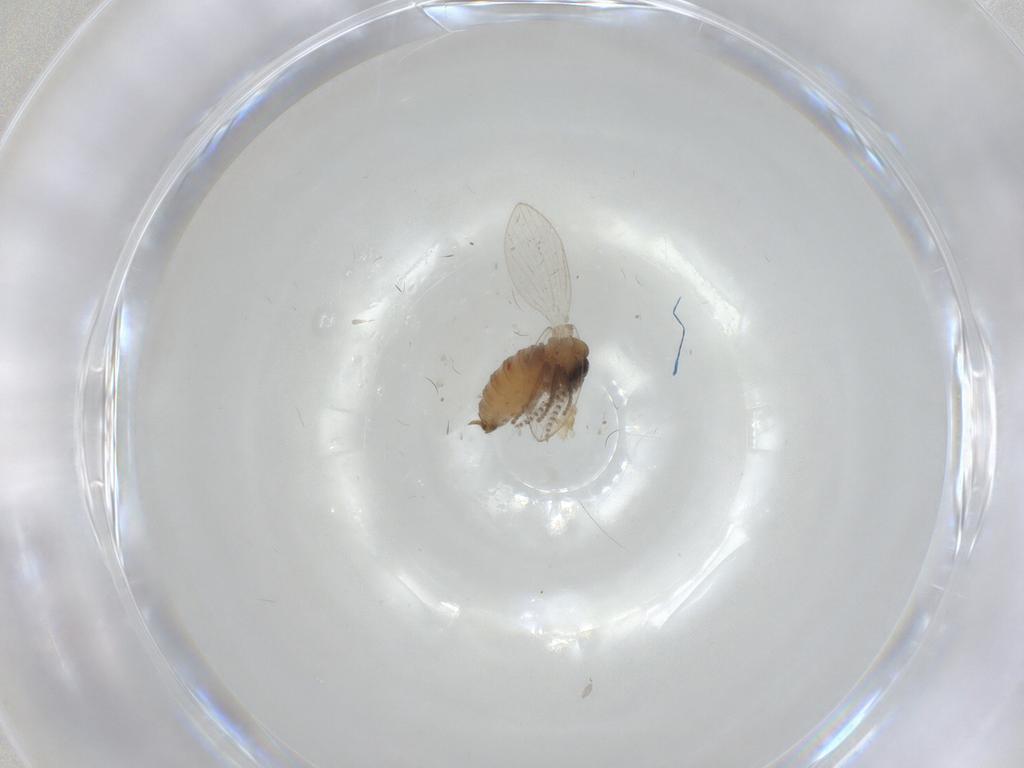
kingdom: Animalia
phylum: Arthropoda
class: Insecta
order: Diptera
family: Psychodidae
